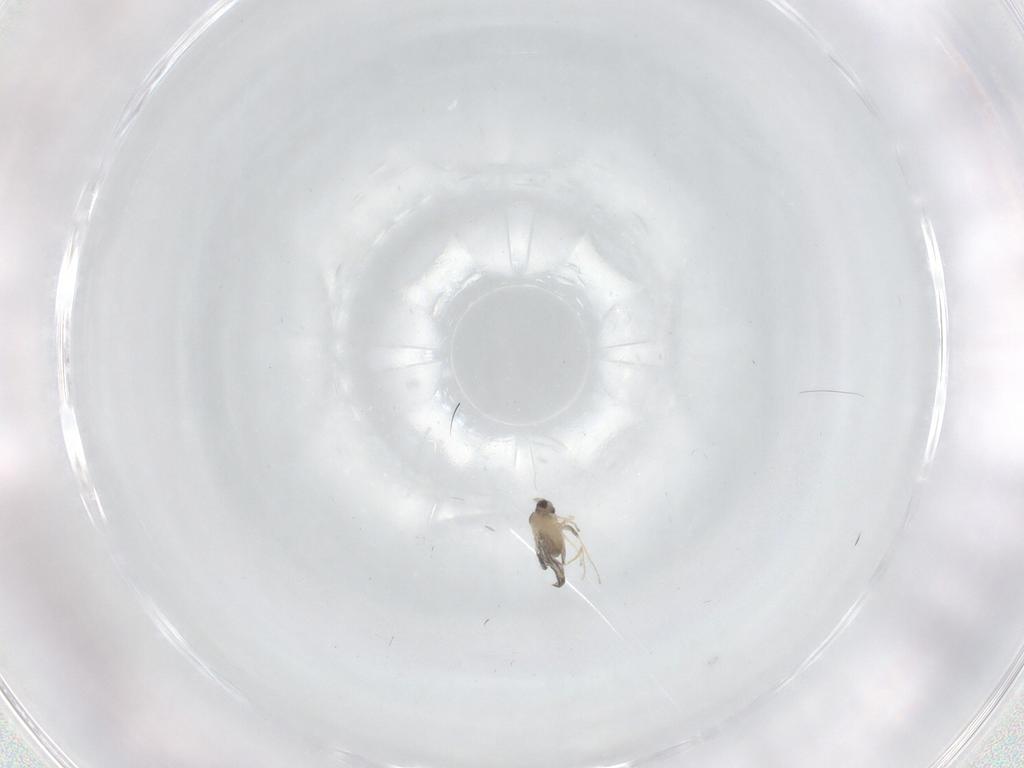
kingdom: Animalia
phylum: Arthropoda
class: Insecta
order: Diptera
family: Cecidomyiidae
